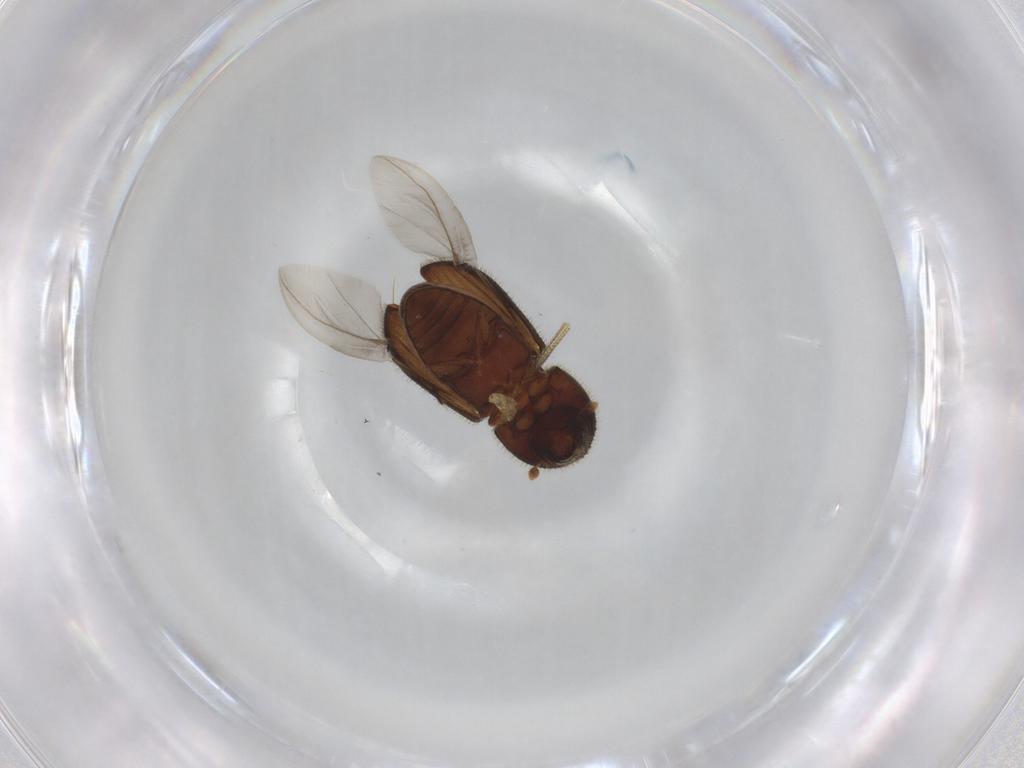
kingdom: Animalia
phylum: Arthropoda
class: Insecta
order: Coleoptera
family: Curculionidae
